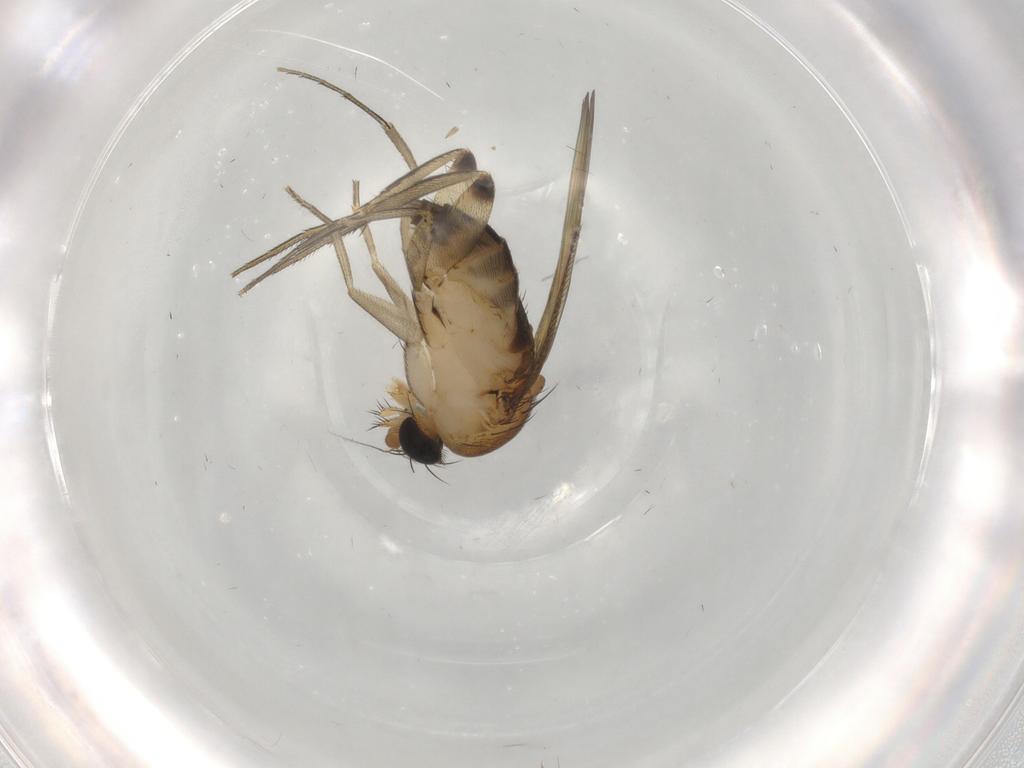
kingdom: Animalia
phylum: Arthropoda
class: Insecta
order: Diptera
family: Phoridae
